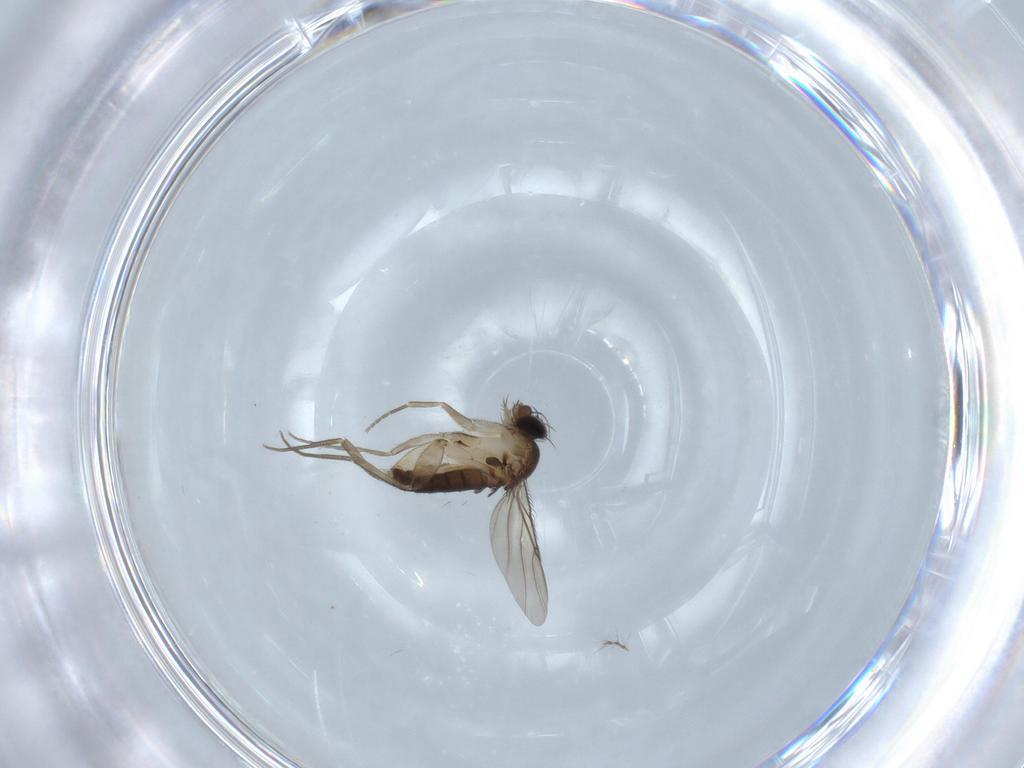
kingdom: Animalia
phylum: Arthropoda
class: Insecta
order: Diptera
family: Phoridae
